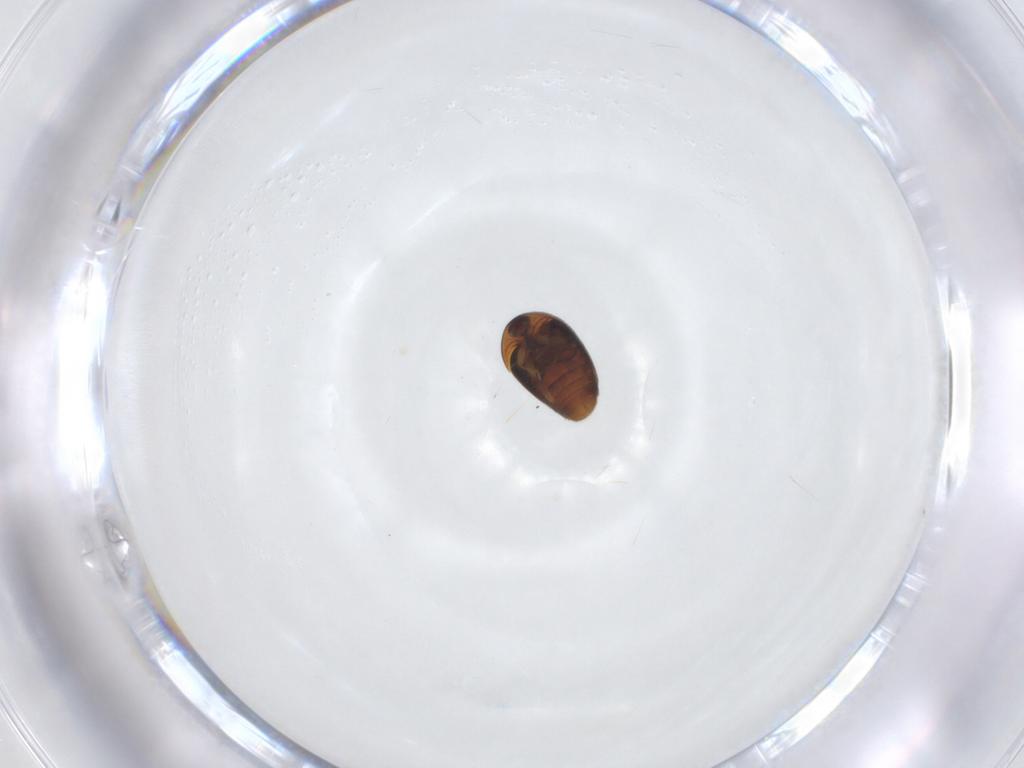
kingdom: Animalia
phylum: Arthropoda
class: Insecta
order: Coleoptera
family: Corylophidae
